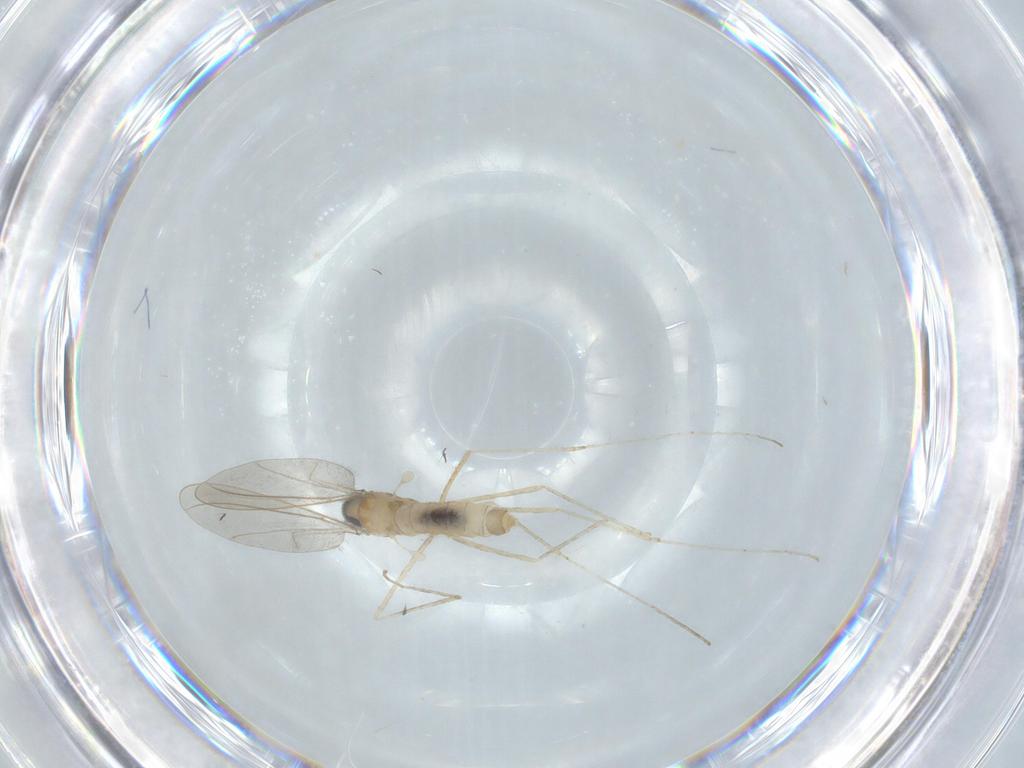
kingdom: Animalia
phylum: Arthropoda
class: Insecta
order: Diptera
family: Cecidomyiidae
